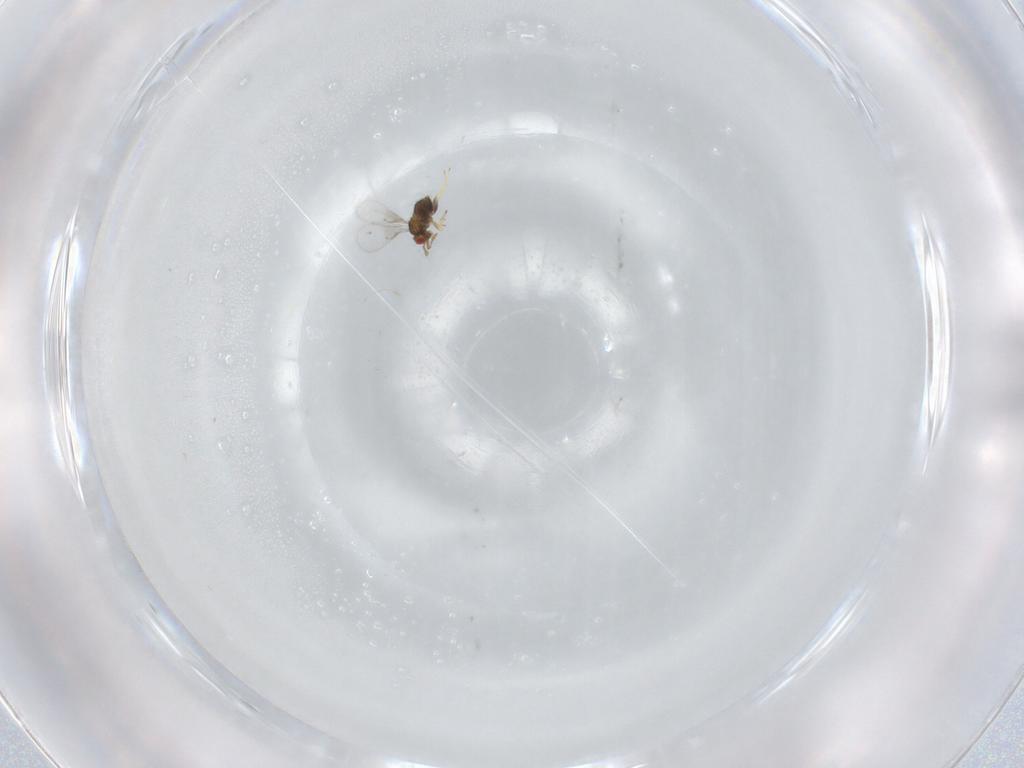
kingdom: Animalia
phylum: Arthropoda
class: Insecta
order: Hymenoptera
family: Trichogrammatidae
